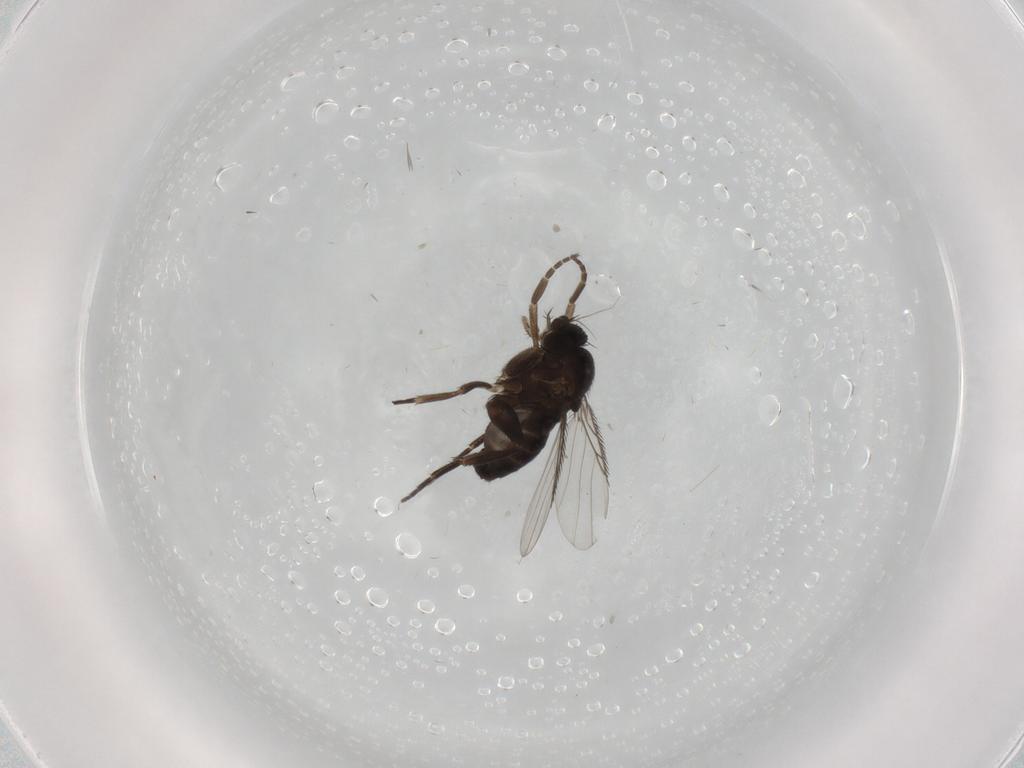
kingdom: Animalia
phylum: Arthropoda
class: Insecta
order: Diptera
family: Phoridae
